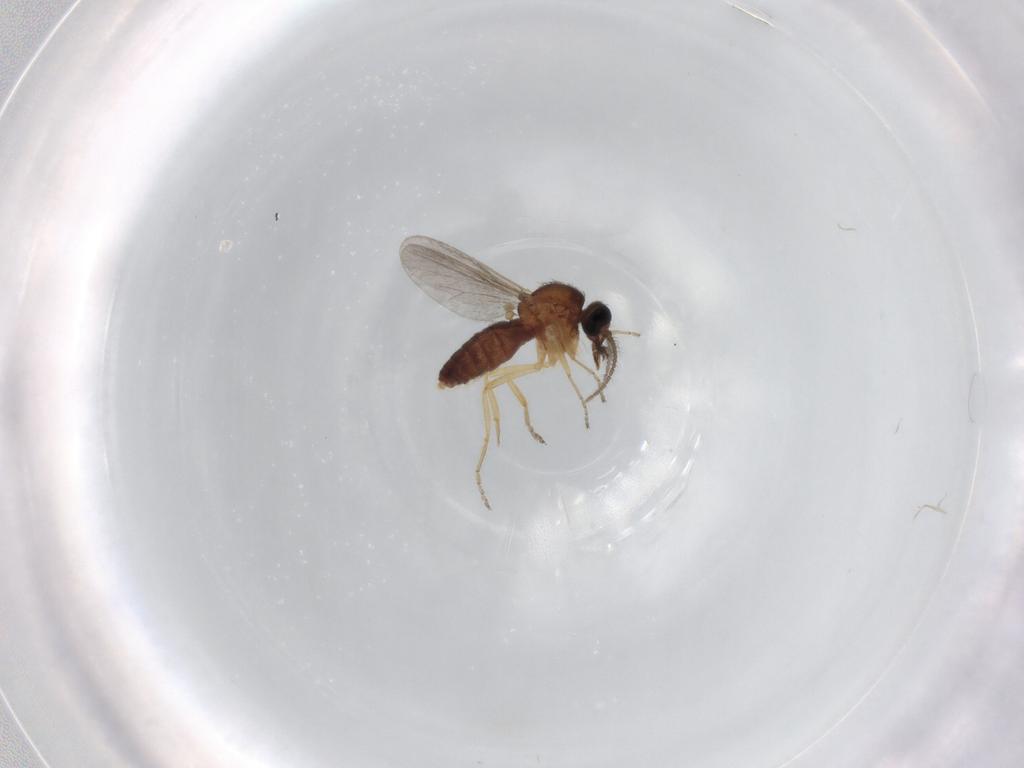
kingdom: Animalia
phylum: Arthropoda
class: Insecta
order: Diptera
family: Ceratopogonidae
